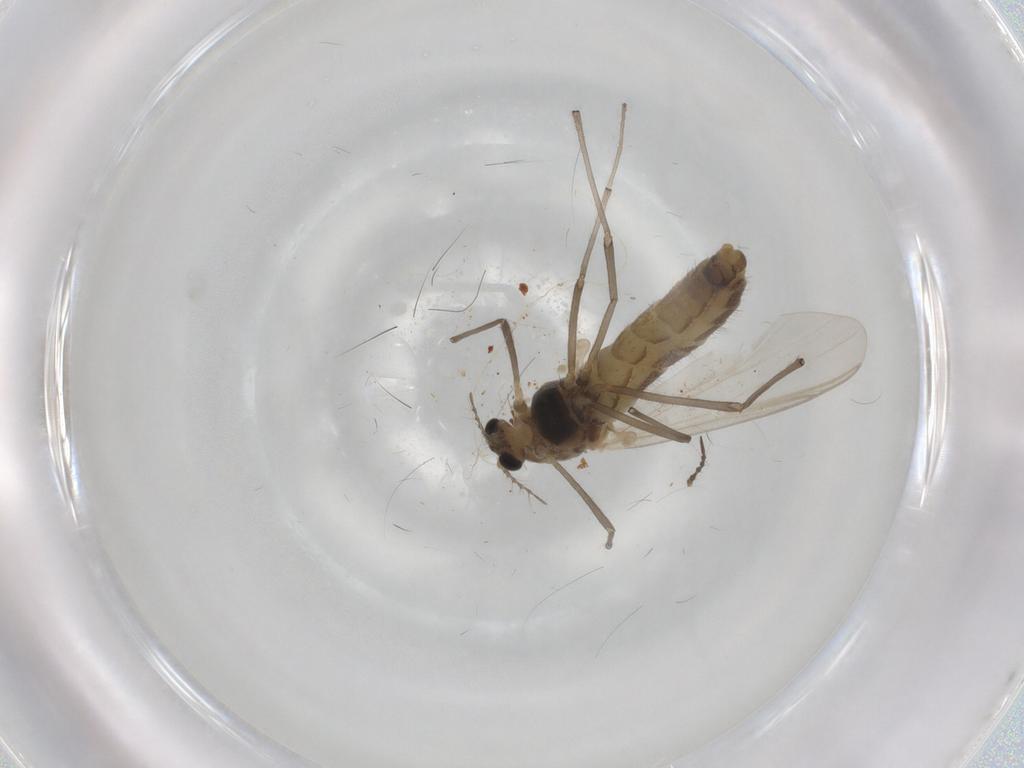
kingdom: Animalia
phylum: Arthropoda
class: Insecta
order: Diptera
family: Chironomidae
